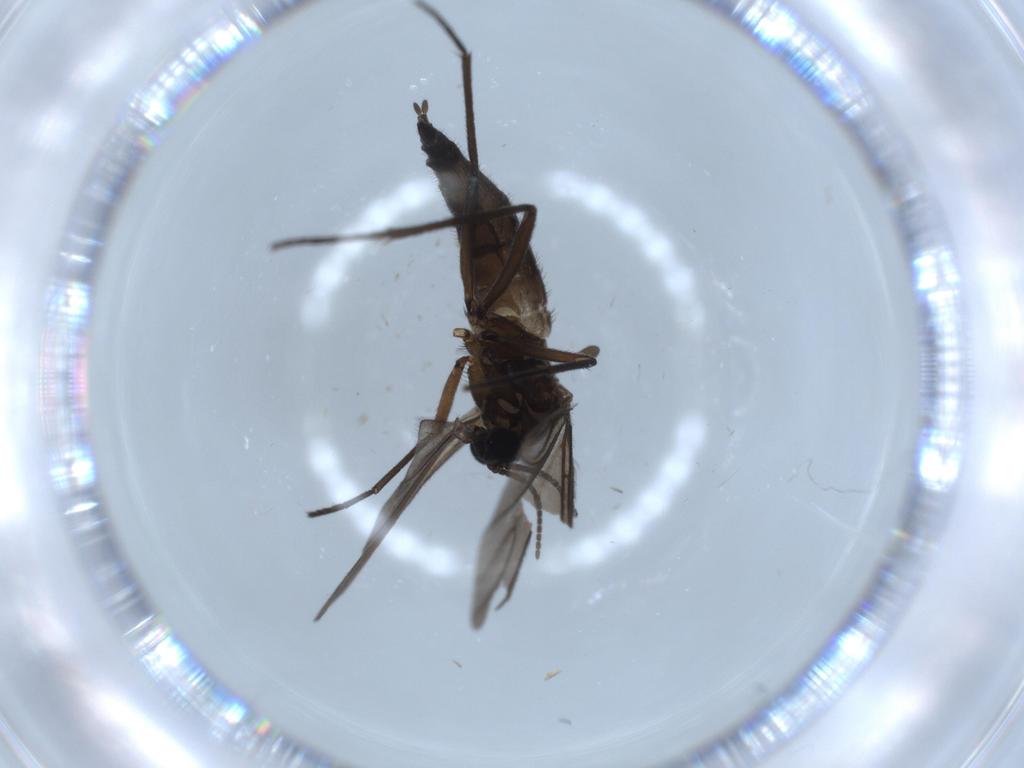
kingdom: Animalia
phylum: Arthropoda
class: Insecta
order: Diptera
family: Sciaridae
